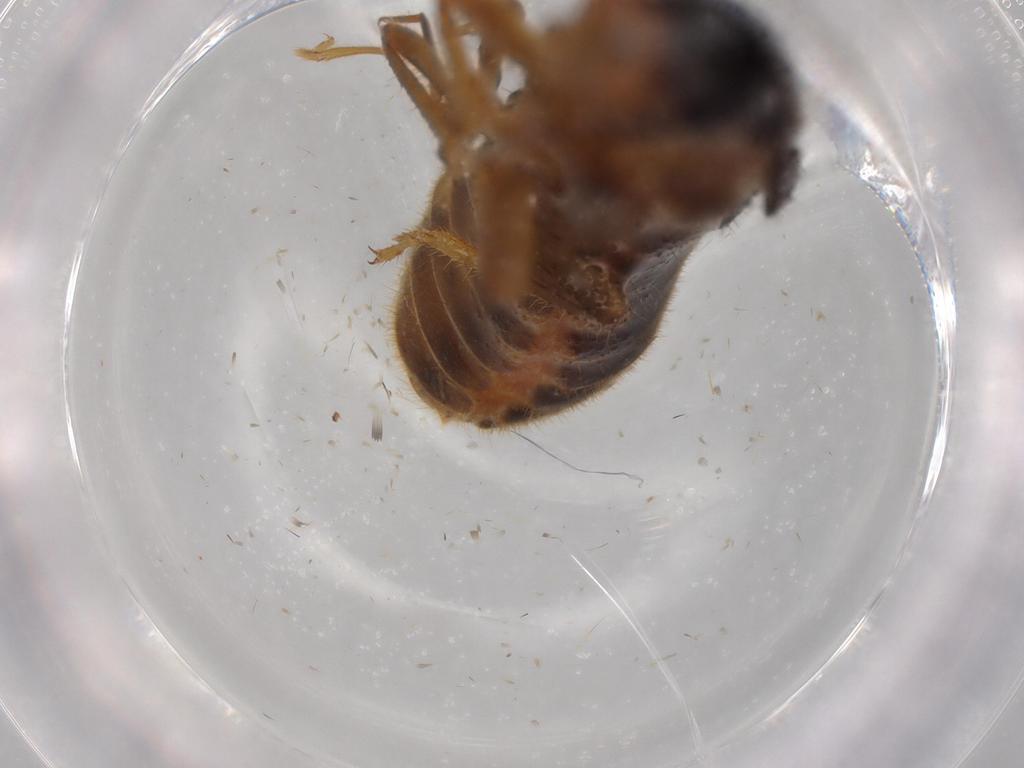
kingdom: Animalia
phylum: Arthropoda
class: Insecta
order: Blattodea
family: Termitidae
